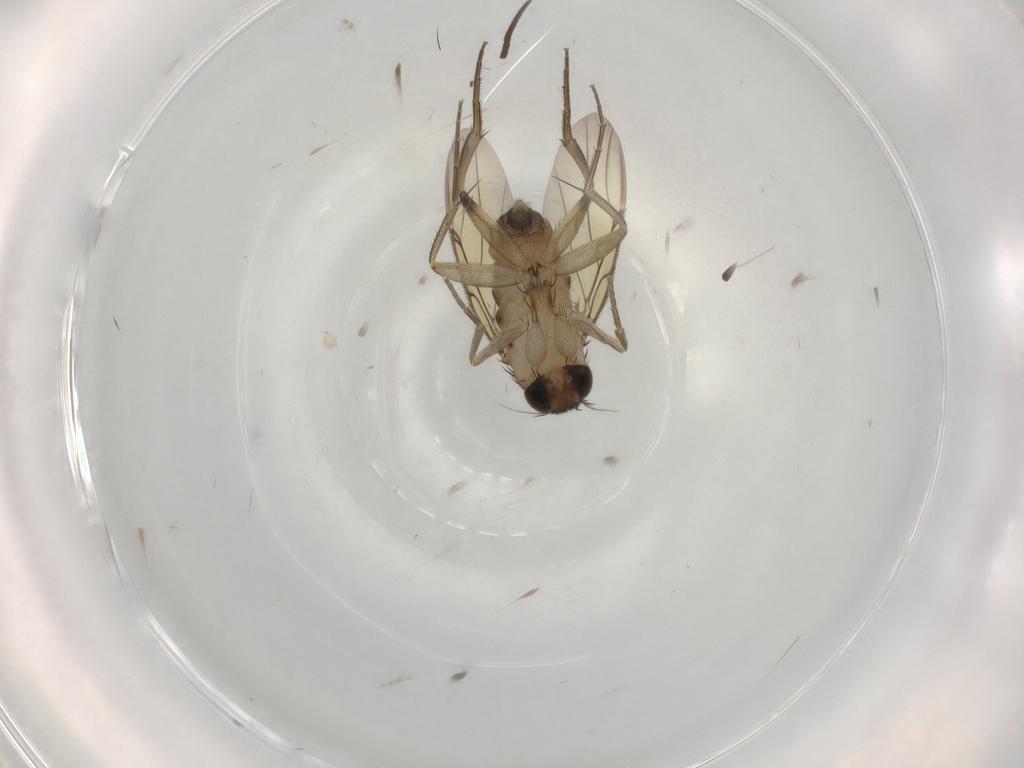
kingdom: Animalia
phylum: Arthropoda
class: Insecta
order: Diptera
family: Phoridae
